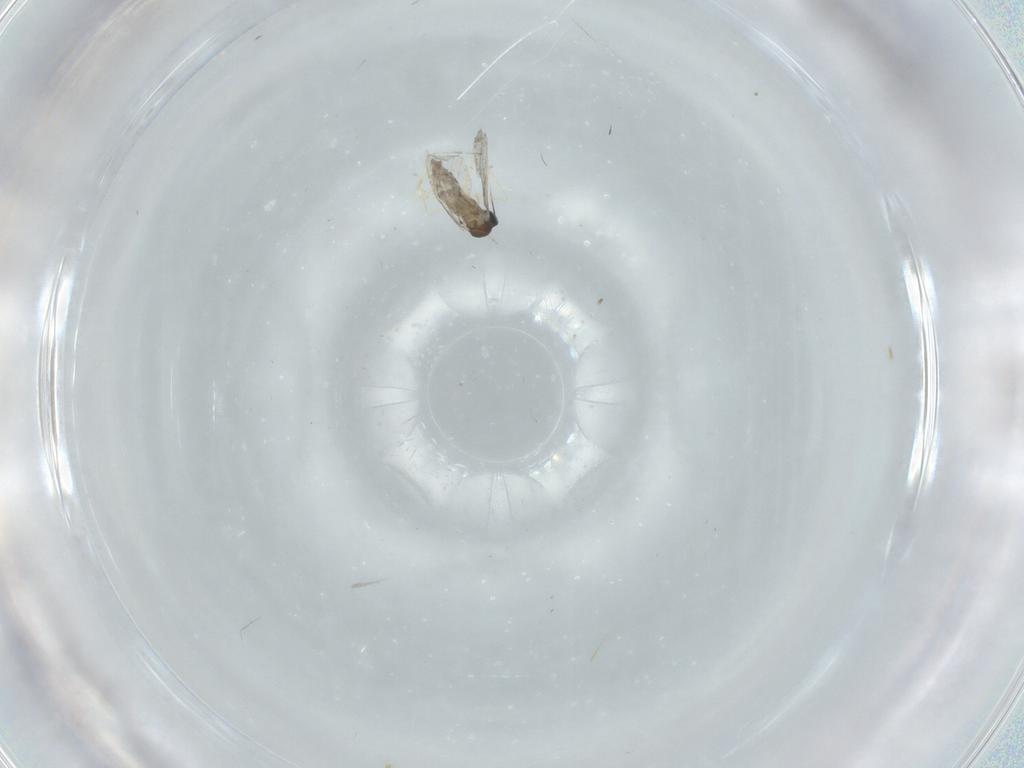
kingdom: Animalia
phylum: Arthropoda
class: Insecta
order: Diptera
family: Cecidomyiidae
